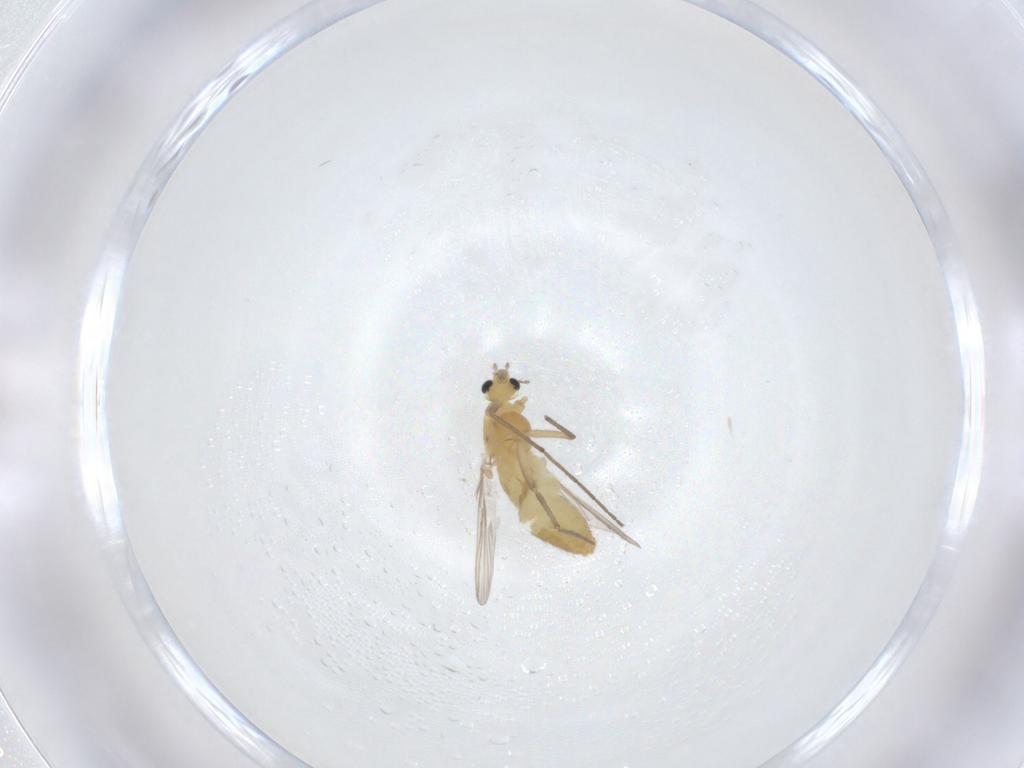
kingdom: Animalia
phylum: Arthropoda
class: Insecta
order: Diptera
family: Chironomidae
